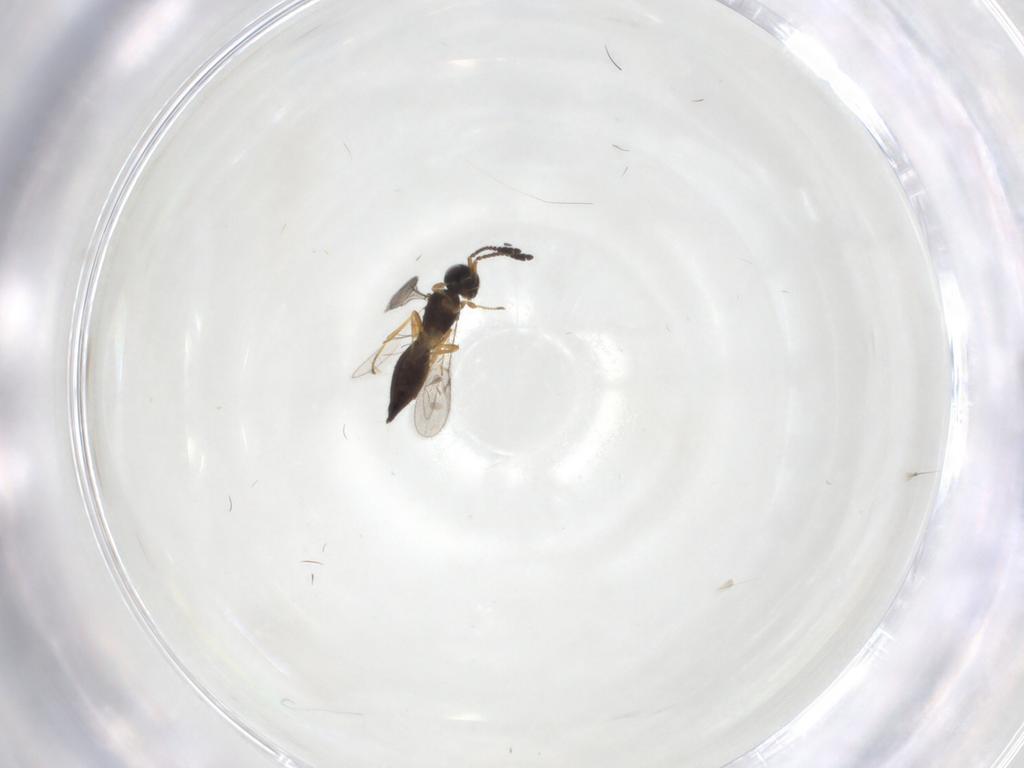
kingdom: Animalia
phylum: Arthropoda
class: Insecta
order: Hymenoptera
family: Scelionidae
